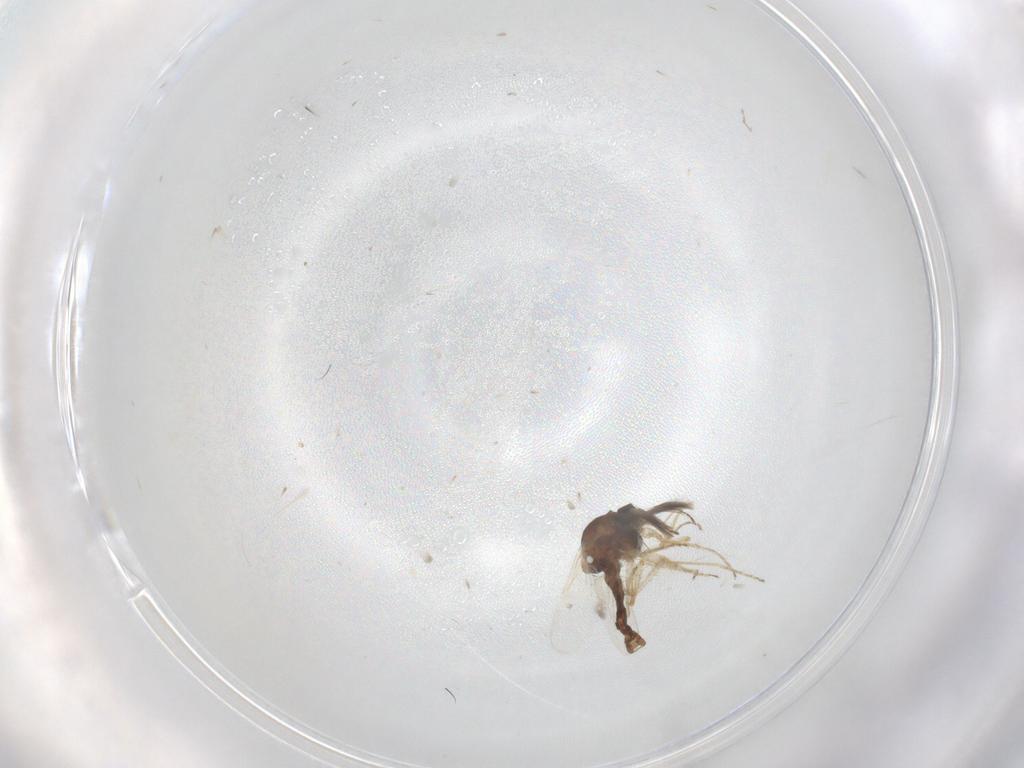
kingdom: Animalia
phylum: Arthropoda
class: Insecta
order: Diptera
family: Ceratopogonidae
